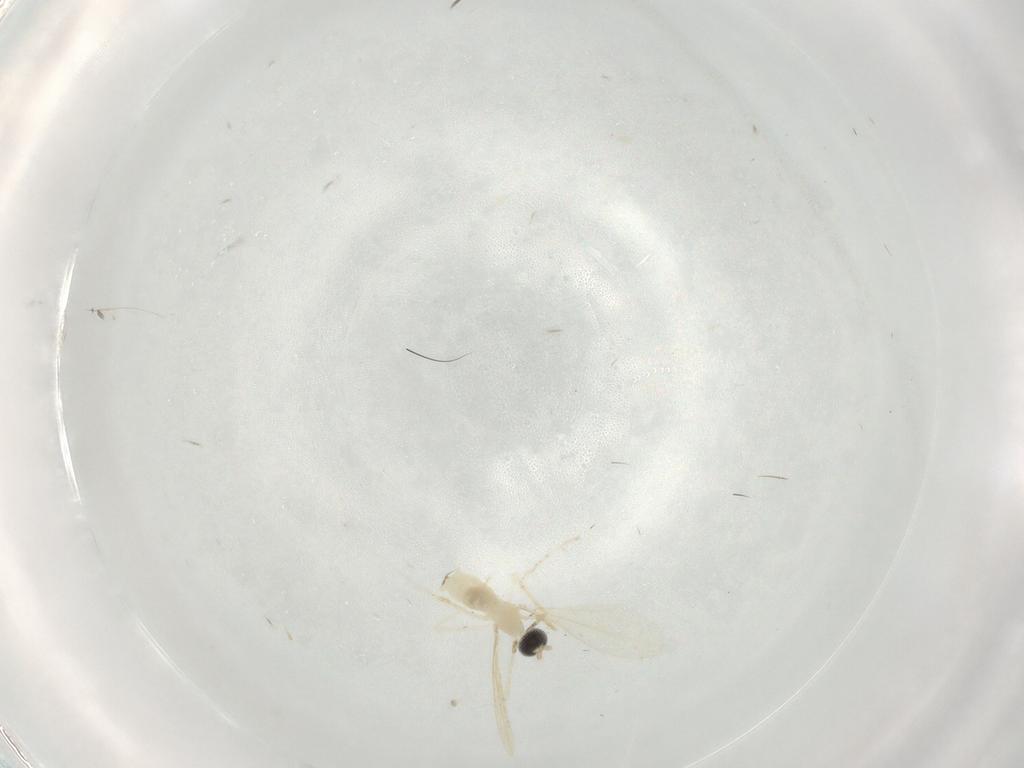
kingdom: Animalia
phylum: Arthropoda
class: Insecta
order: Diptera
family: Cecidomyiidae
